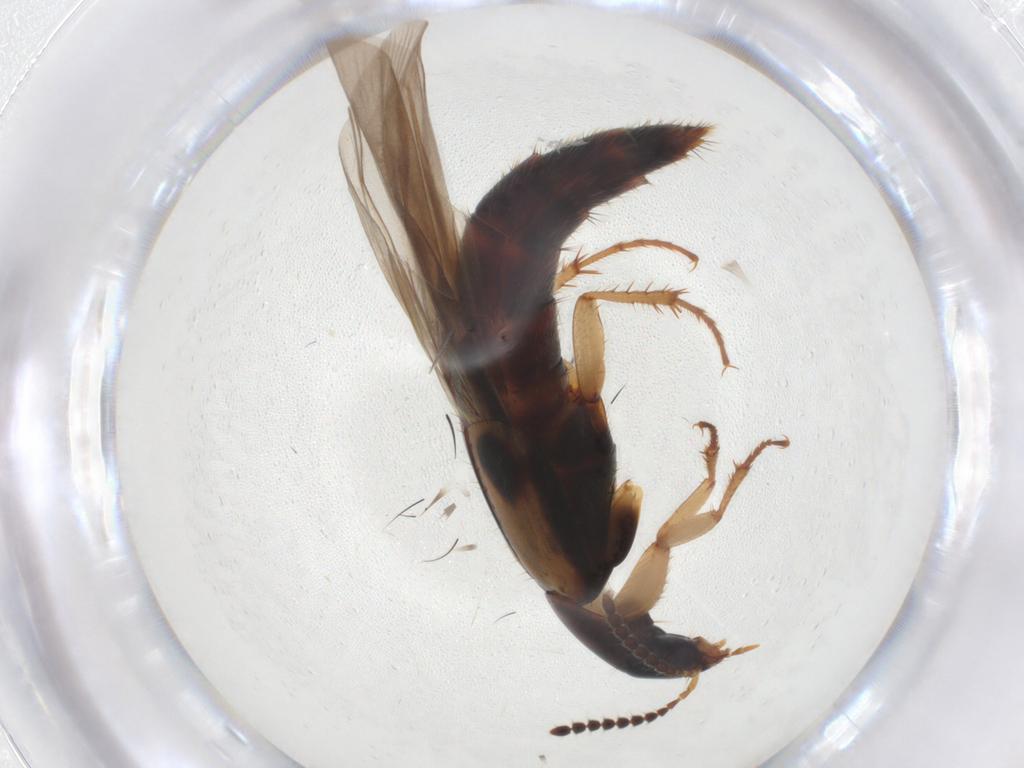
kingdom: Animalia
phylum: Arthropoda
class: Insecta
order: Coleoptera
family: Staphylinidae
